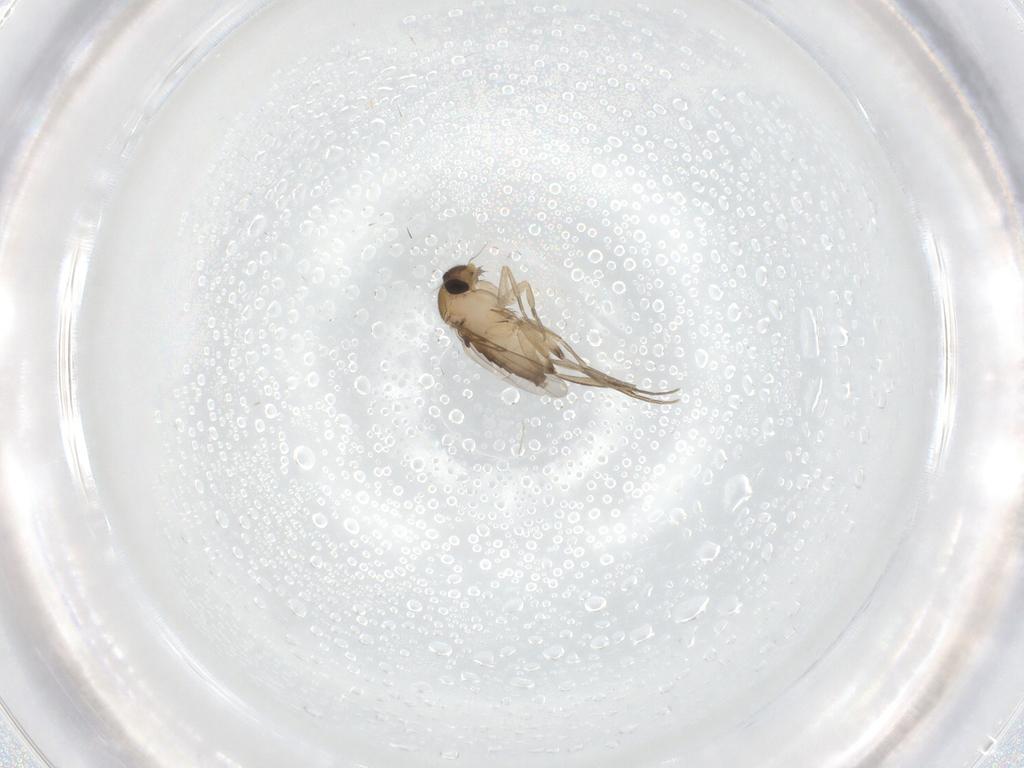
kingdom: Animalia
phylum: Arthropoda
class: Insecta
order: Diptera
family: Phoridae
